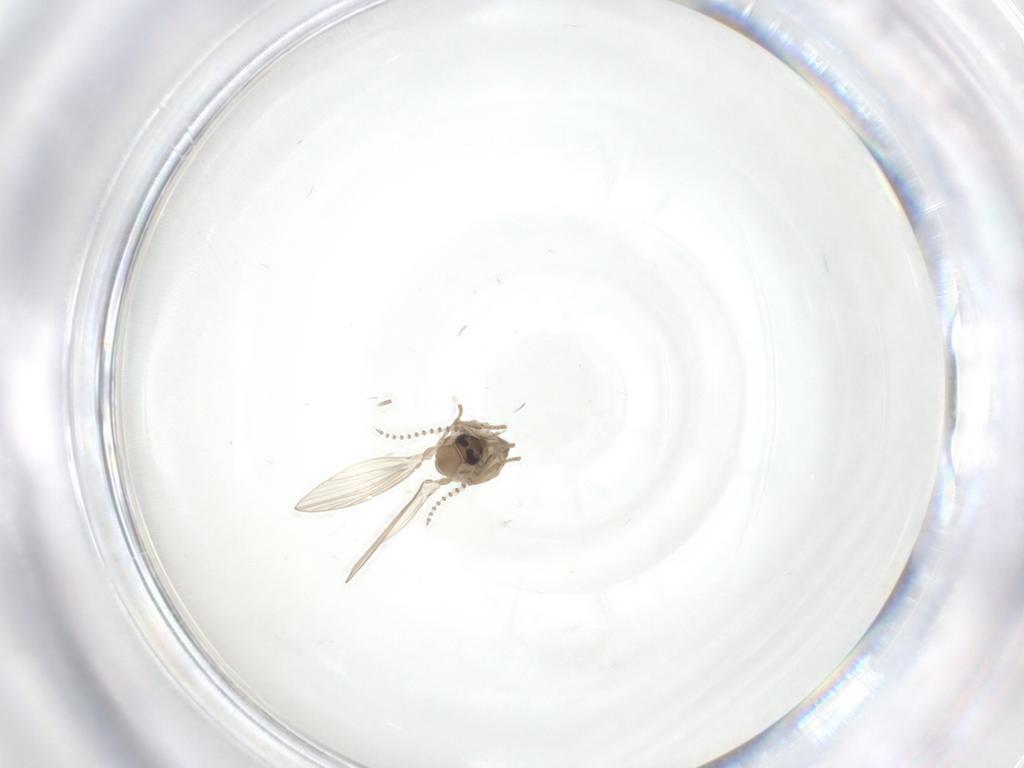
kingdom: Animalia
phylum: Arthropoda
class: Insecta
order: Diptera
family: Psychodidae
